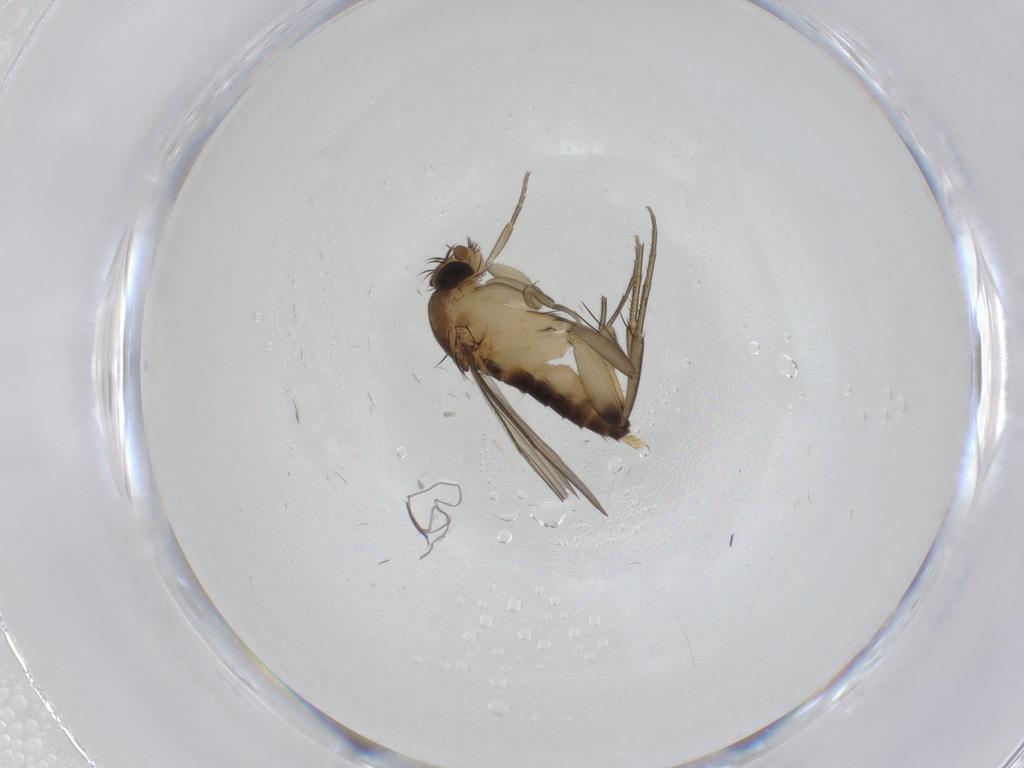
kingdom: Animalia
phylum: Arthropoda
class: Insecta
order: Diptera
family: Phoridae
